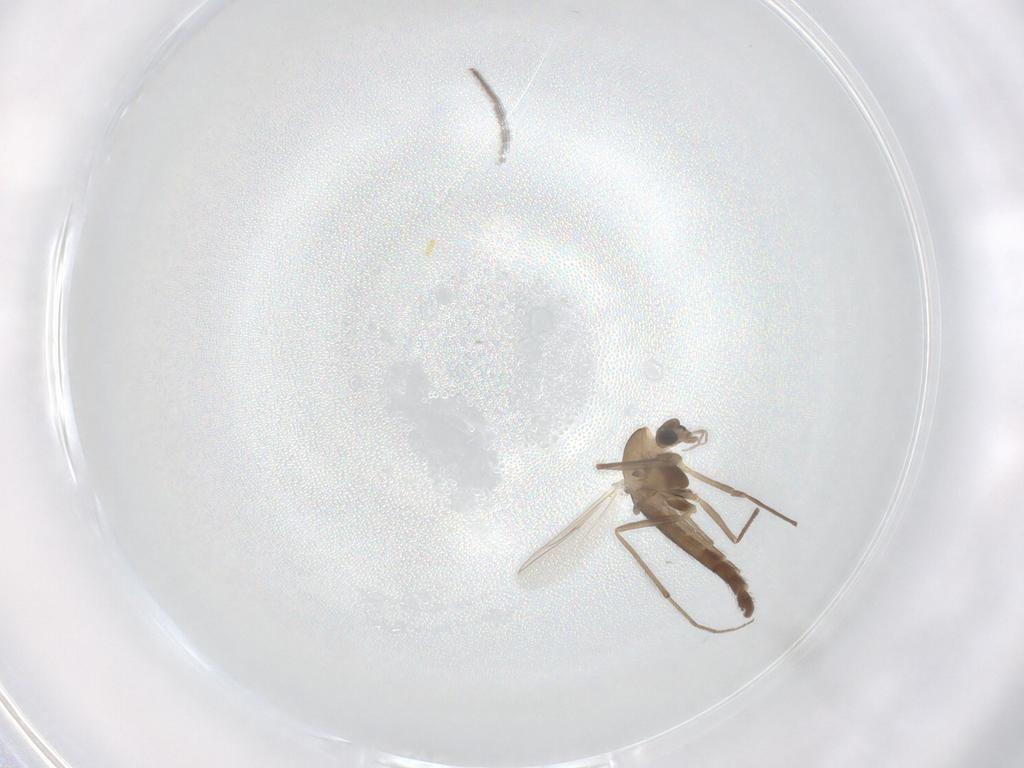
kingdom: Animalia
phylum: Arthropoda
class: Insecta
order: Diptera
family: Chironomidae
